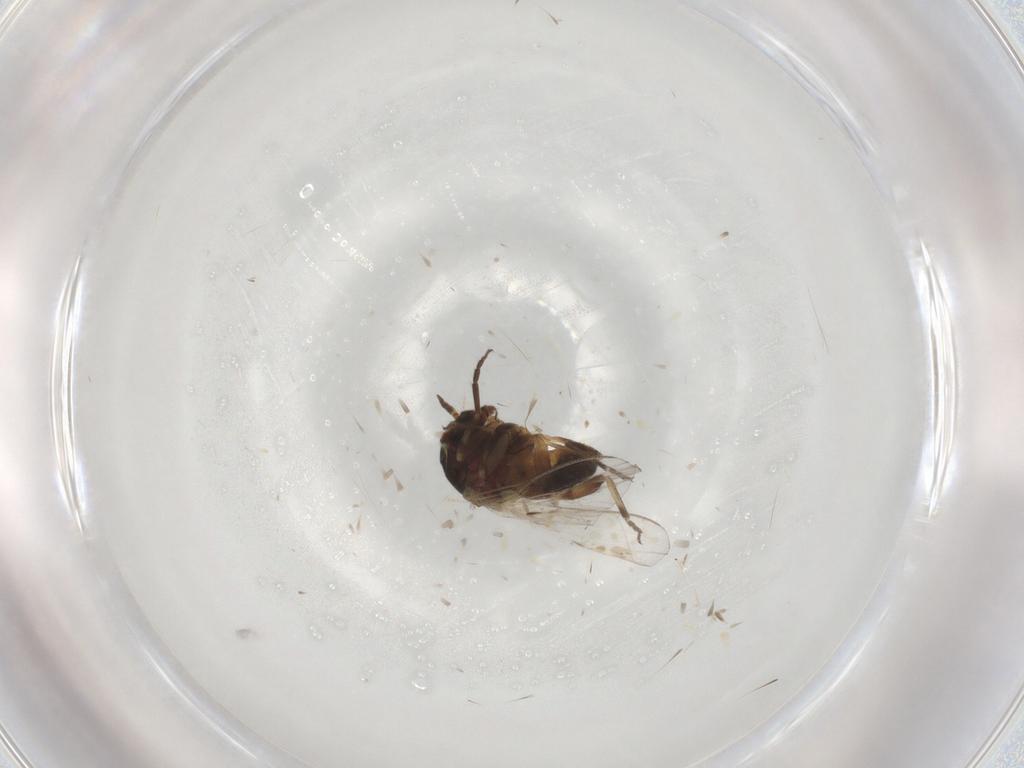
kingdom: Animalia
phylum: Arthropoda
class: Insecta
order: Diptera
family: Simuliidae
